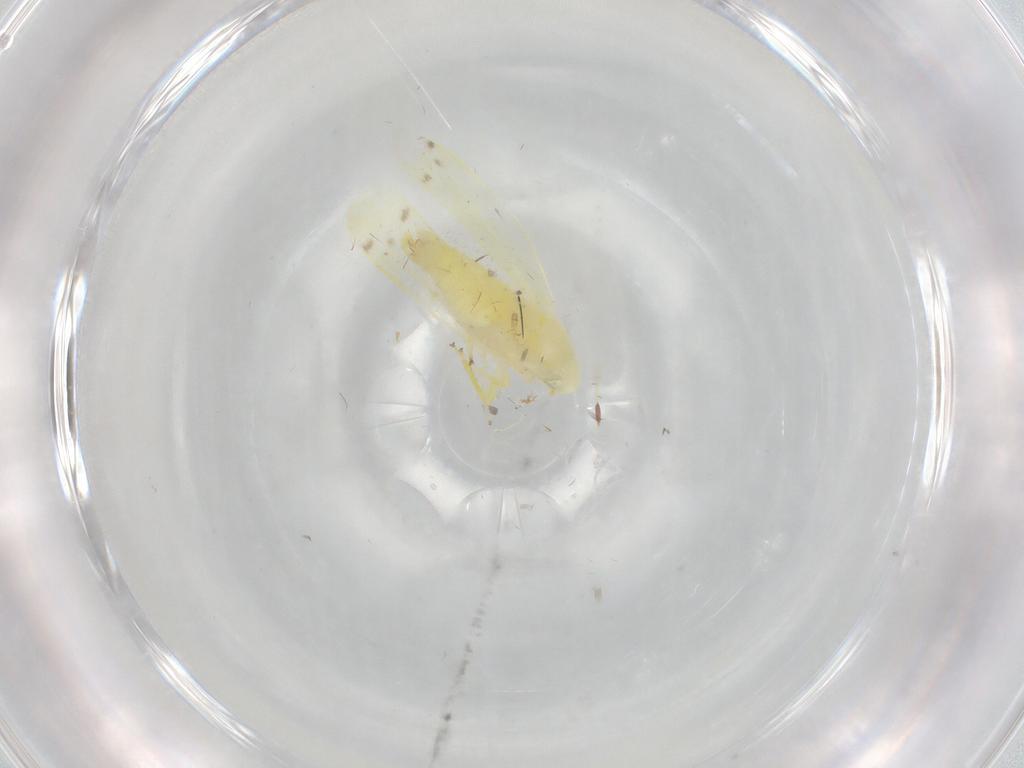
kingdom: Animalia
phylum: Arthropoda
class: Insecta
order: Hemiptera
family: Cicadellidae
